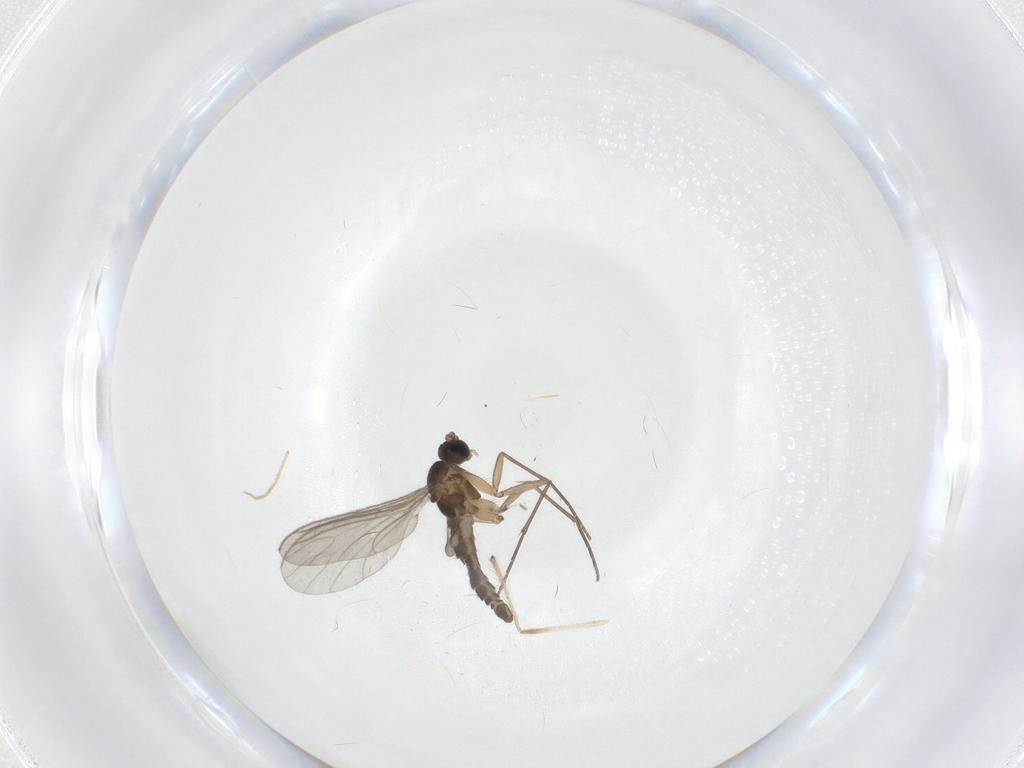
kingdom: Animalia
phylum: Arthropoda
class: Insecta
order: Diptera
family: Sciaridae
